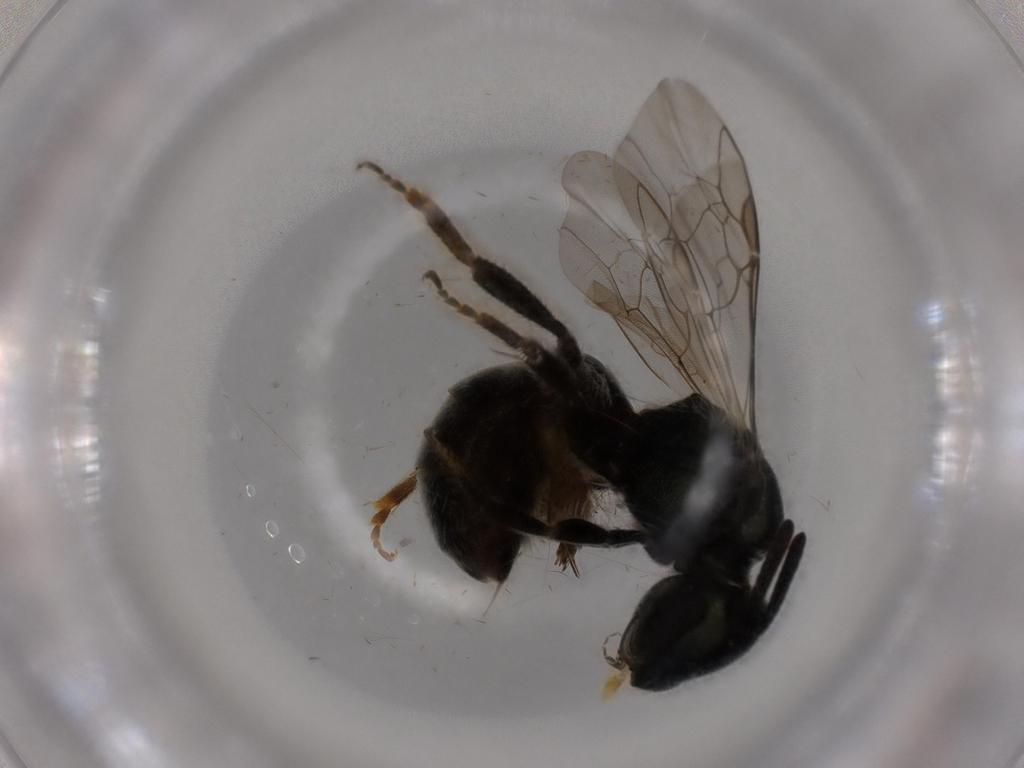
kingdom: Animalia
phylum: Arthropoda
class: Insecta
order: Hymenoptera
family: Halictidae
